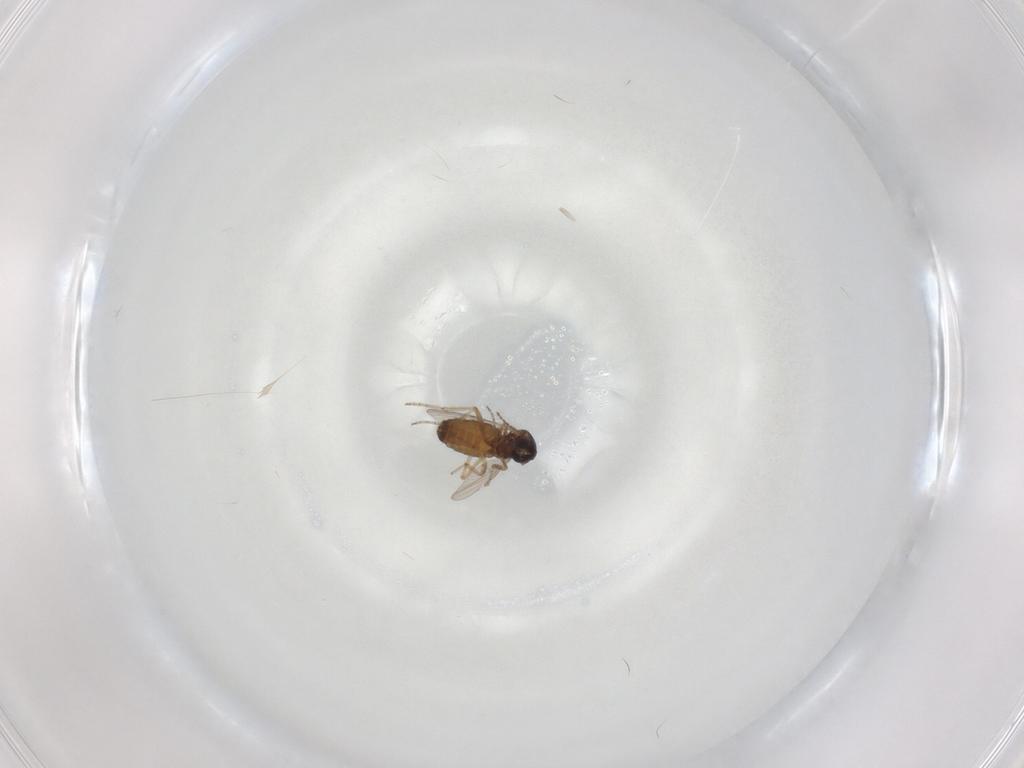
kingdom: Animalia
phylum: Arthropoda
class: Insecta
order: Diptera
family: Ceratopogonidae
